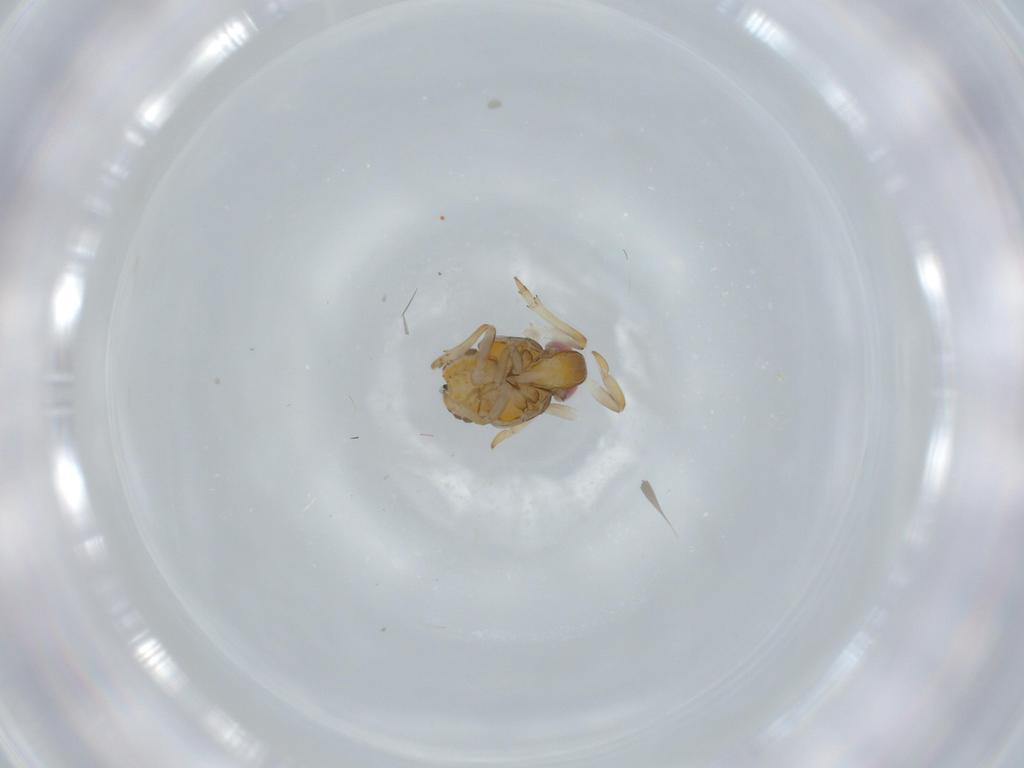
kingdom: Animalia
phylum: Arthropoda
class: Insecta
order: Hemiptera
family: Issidae
